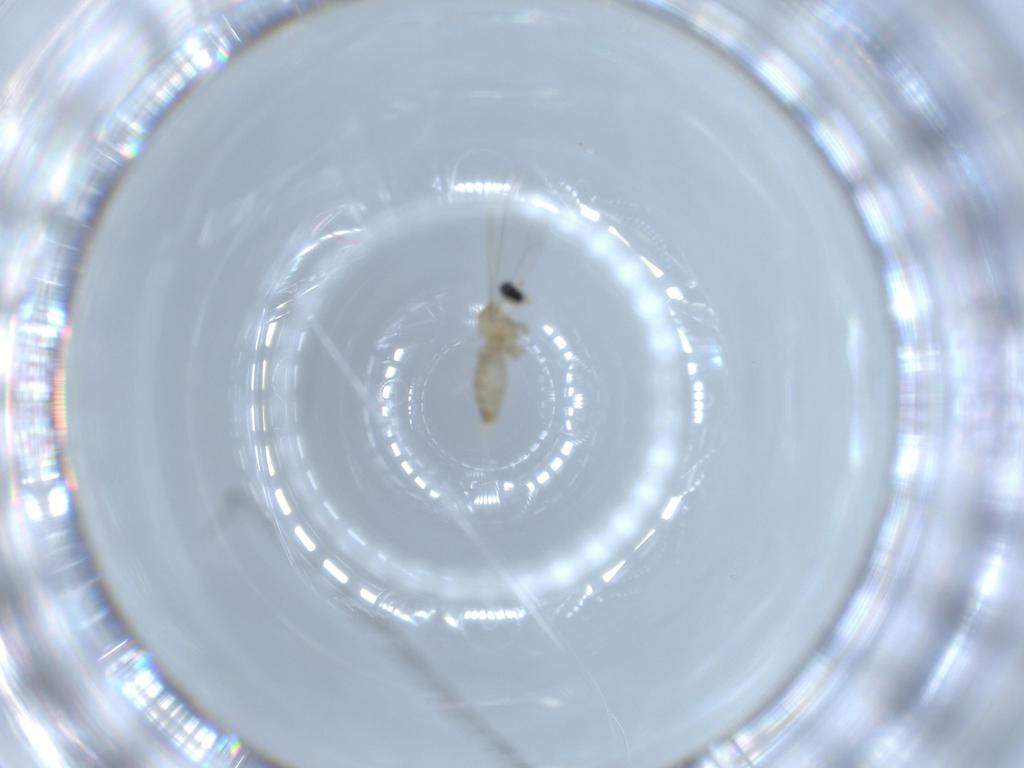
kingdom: Animalia
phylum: Arthropoda
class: Insecta
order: Diptera
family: Cecidomyiidae
